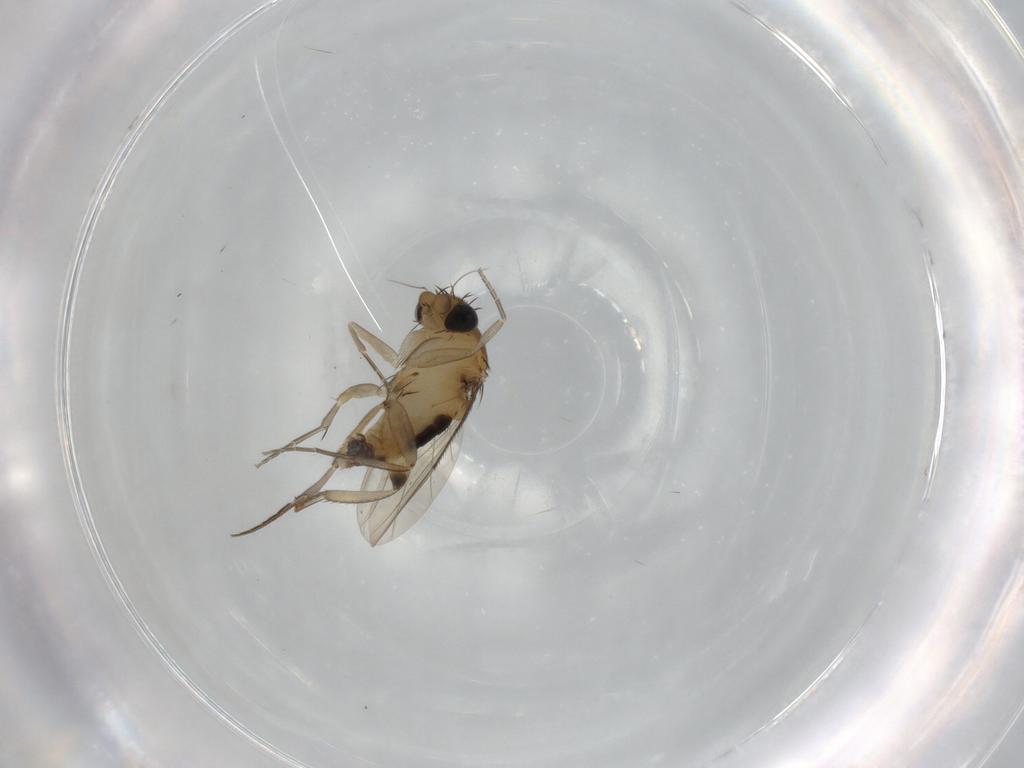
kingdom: Animalia
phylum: Arthropoda
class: Insecta
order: Diptera
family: Phoridae
